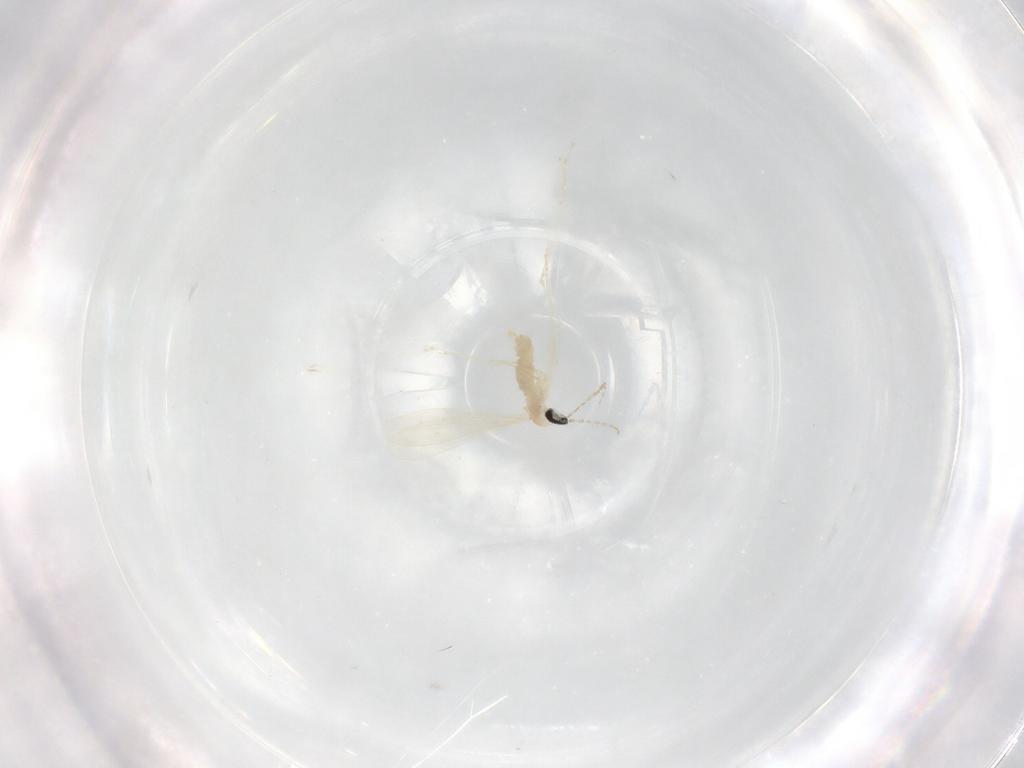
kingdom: Animalia
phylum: Arthropoda
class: Insecta
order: Diptera
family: Cecidomyiidae
